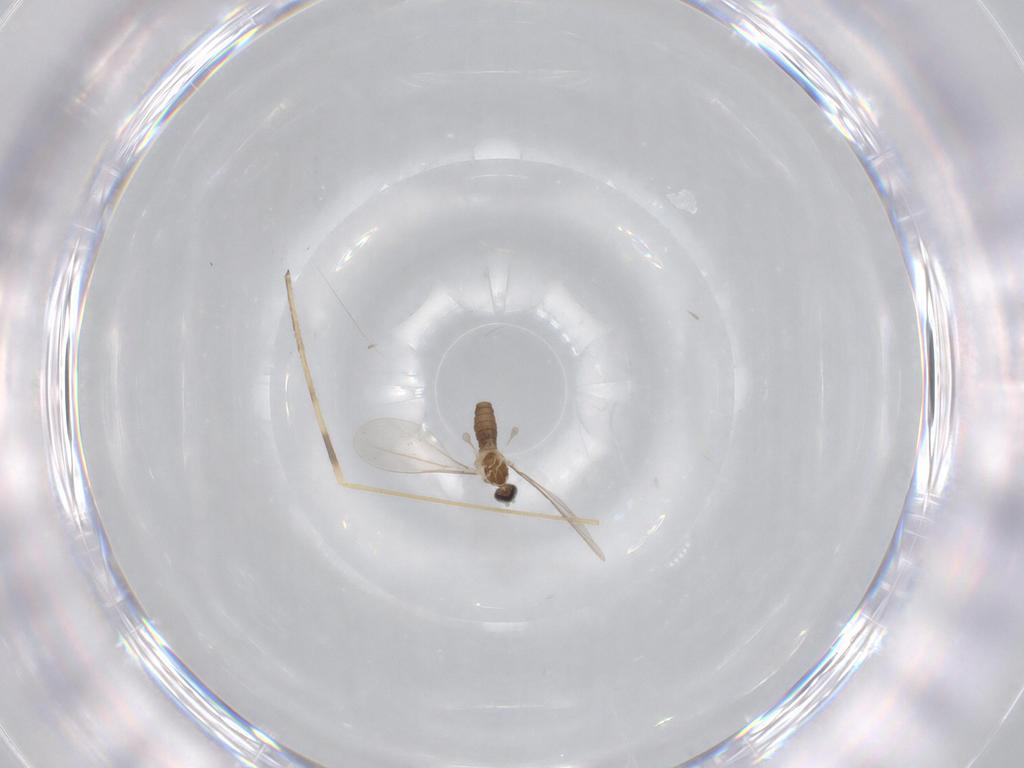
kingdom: Animalia
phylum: Arthropoda
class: Insecta
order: Diptera
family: Cecidomyiidae
